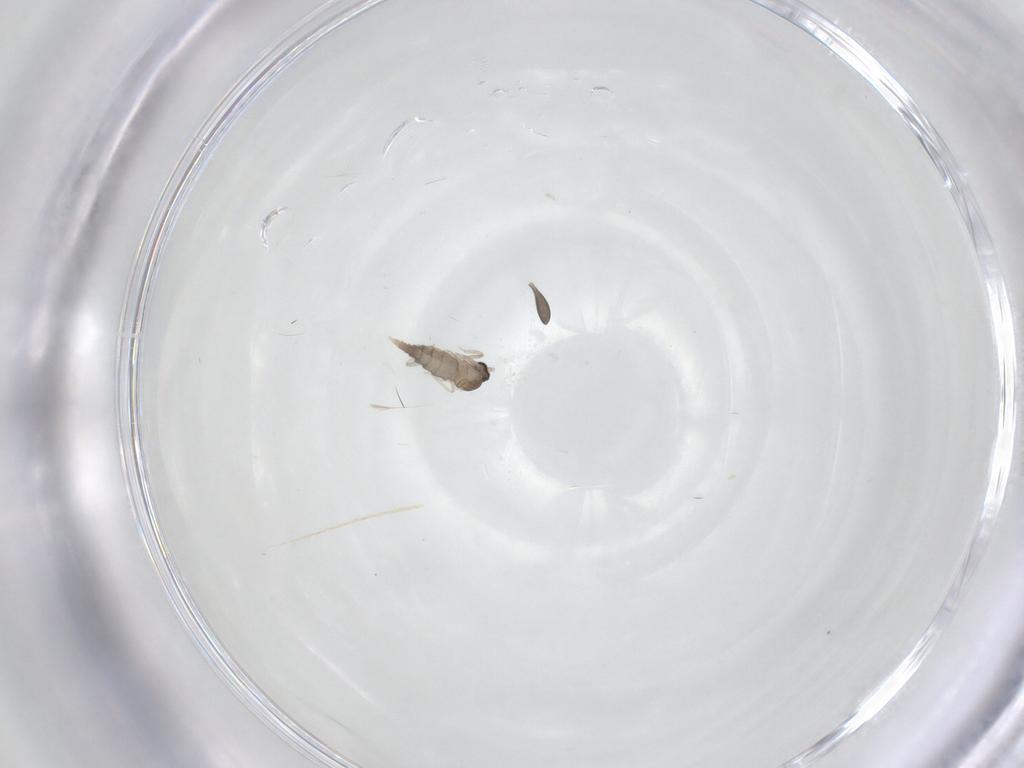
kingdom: Animalia
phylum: Arthropoda
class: Insecta
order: Diptera
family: Cecidomyiidae
